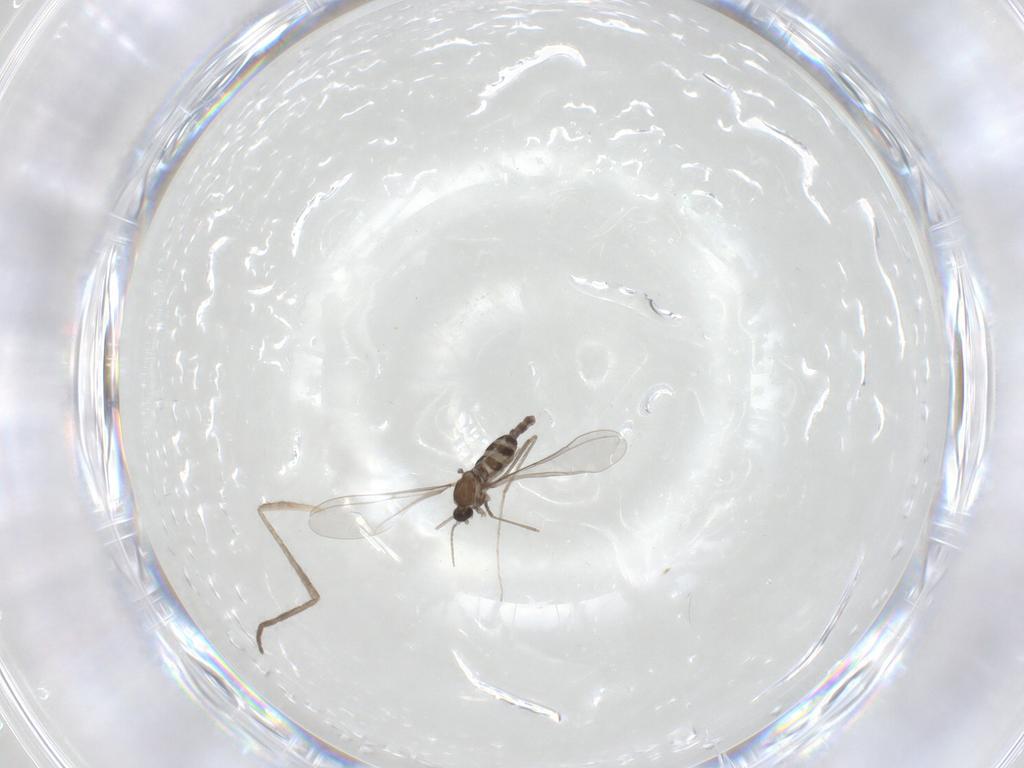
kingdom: Animalia
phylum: Arthropoda
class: Insecta
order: Diptera
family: Cecidomyiidae
